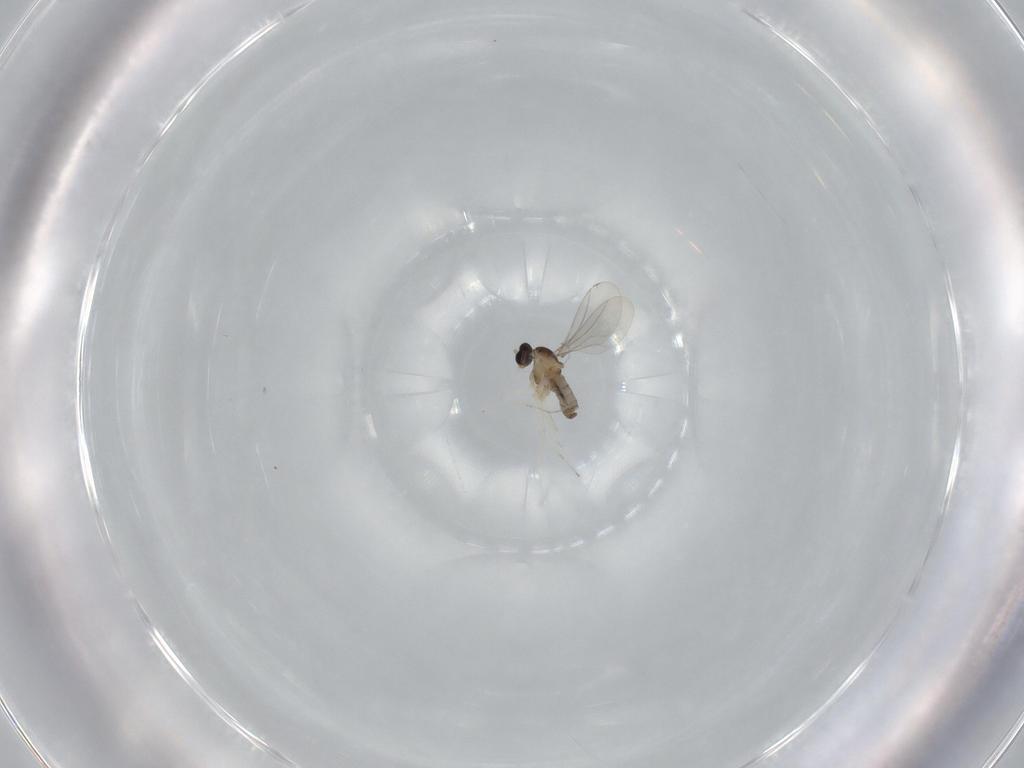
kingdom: Animalia
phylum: Arthropoda
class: Insecta
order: Diptera
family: Cecidomyiidae
